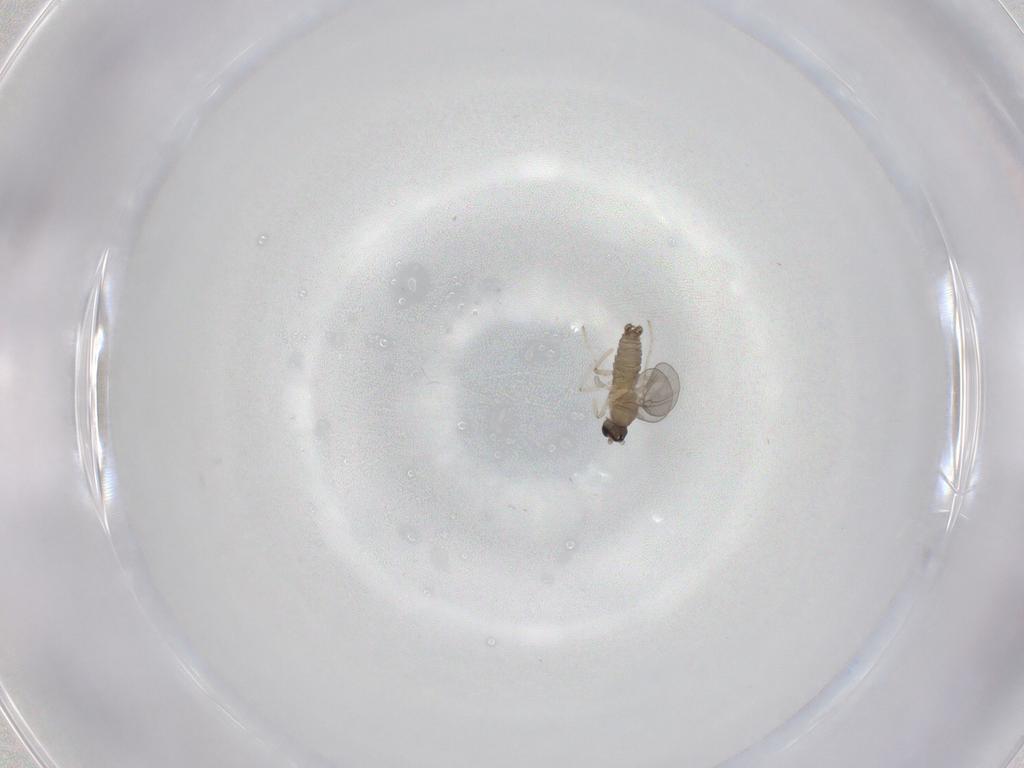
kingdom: Animalia
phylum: Arthropoda
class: Insecta
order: Diptera
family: Cecidomyiidae
